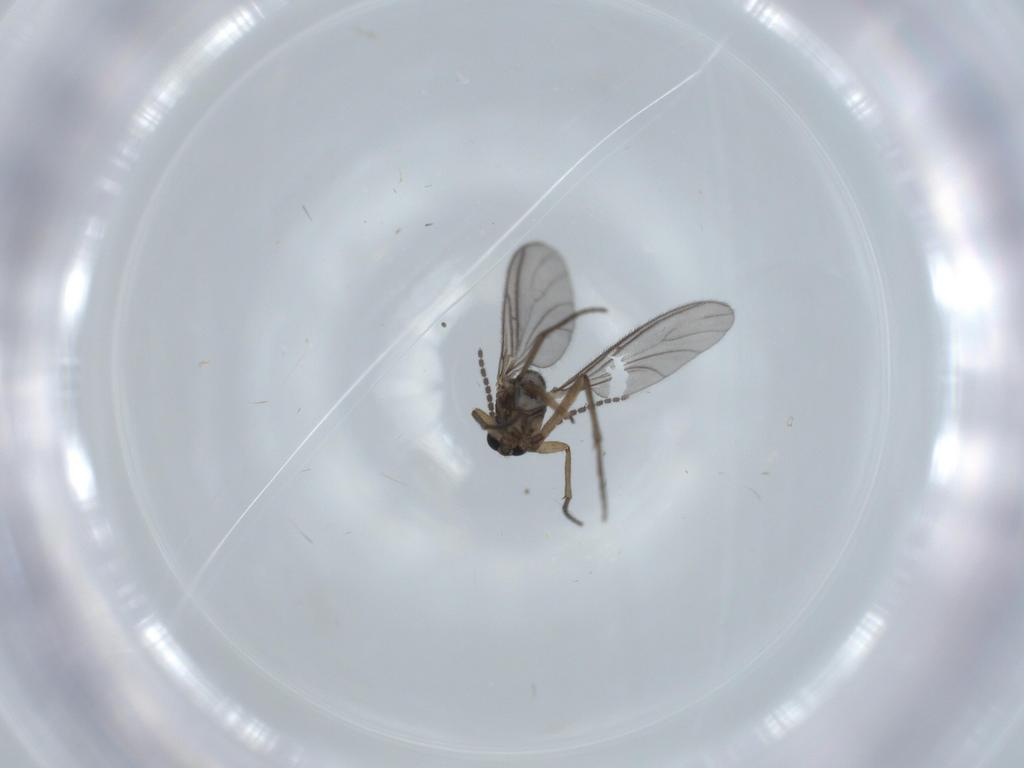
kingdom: Animalia
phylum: Arthropoda
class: Insecta
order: Diptera
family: Sciaridae
